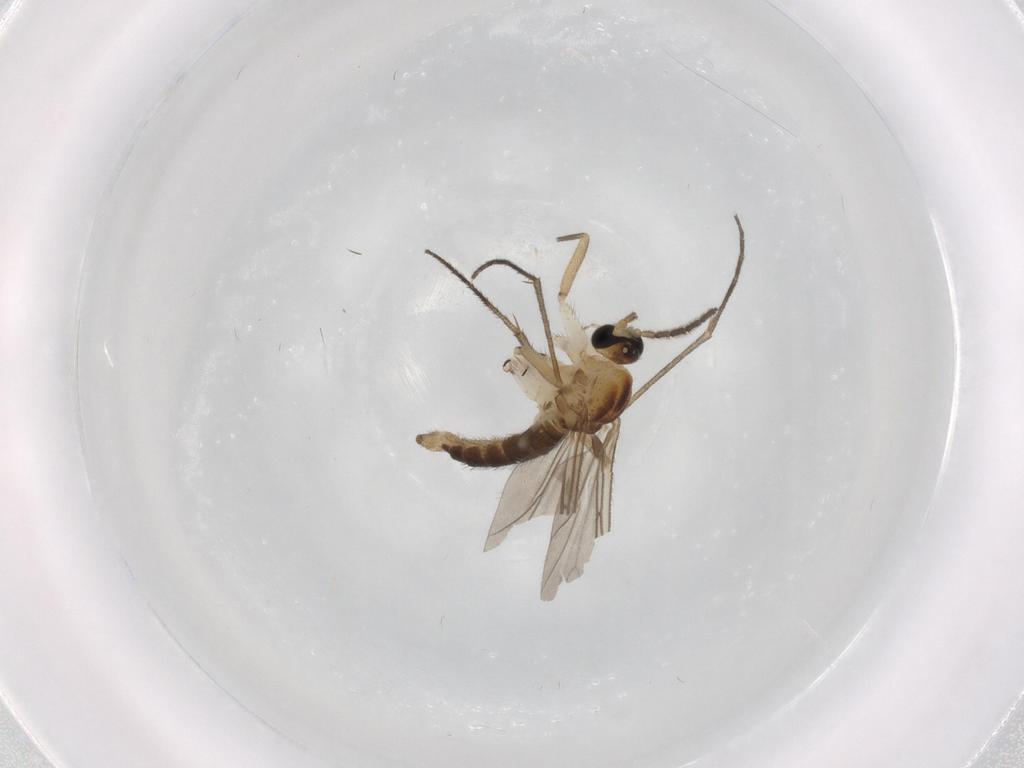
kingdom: Animalia
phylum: Arthropoda
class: Insecta
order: Diptera
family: Sciaridae
